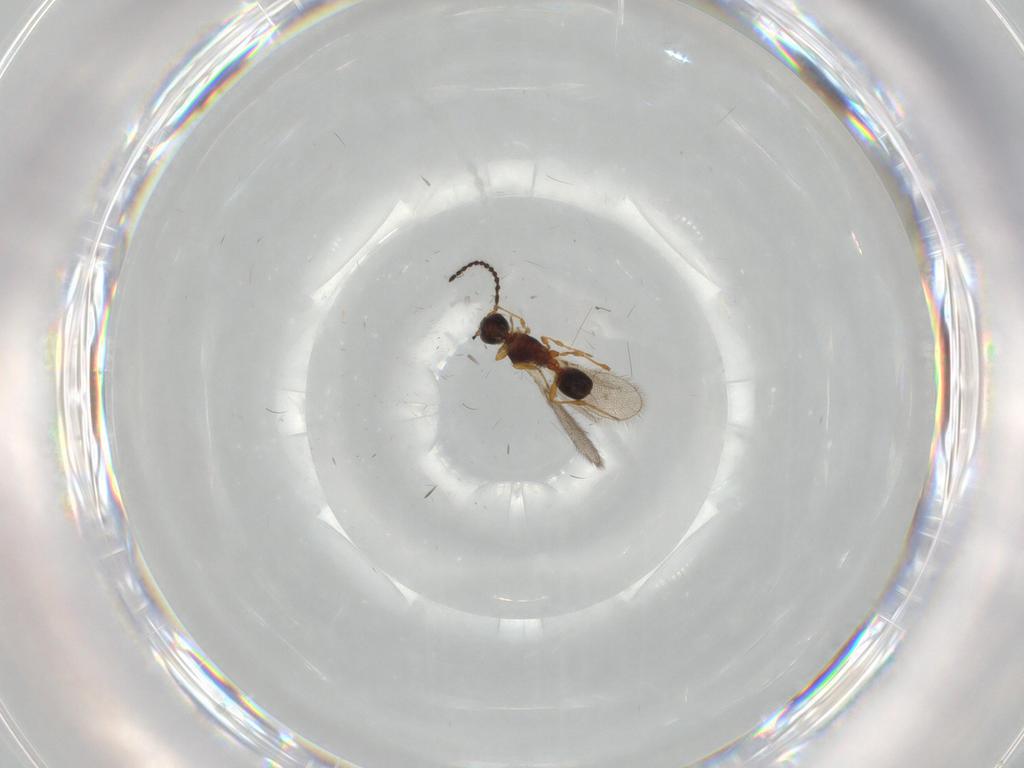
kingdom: Animalia
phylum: Arthropoda
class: Insecta
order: Hymenoptera
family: Diapriidae
